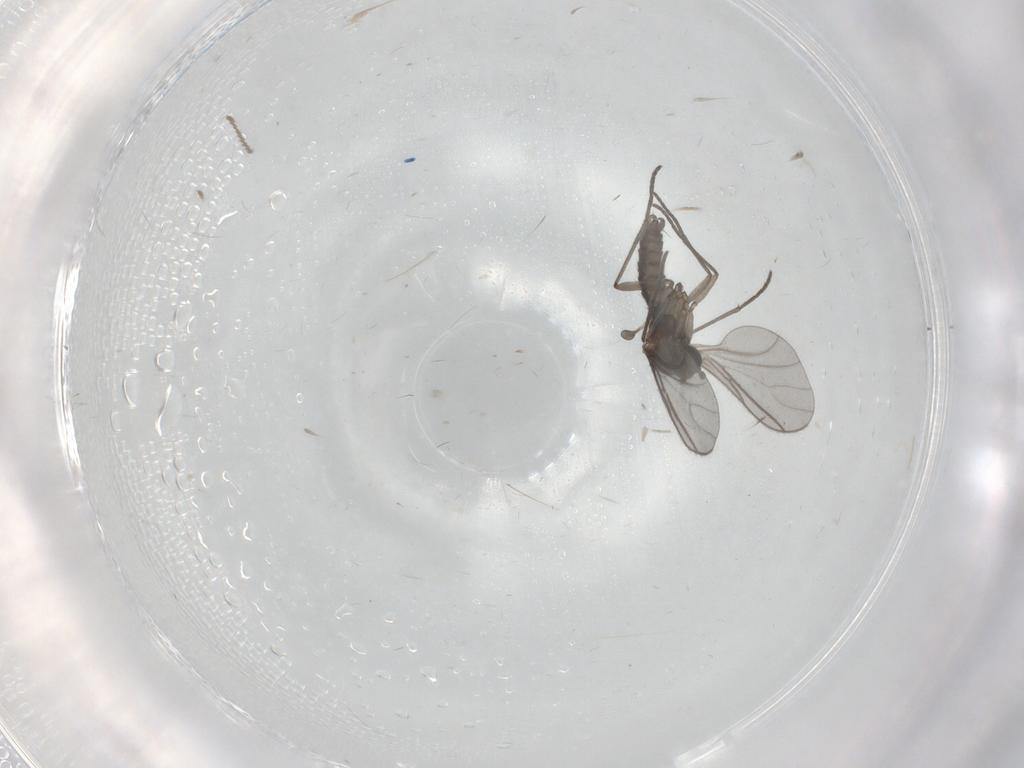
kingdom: Animalia
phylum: Arthropoda
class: Insecta
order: Diptera
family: Cecidomyiidae
